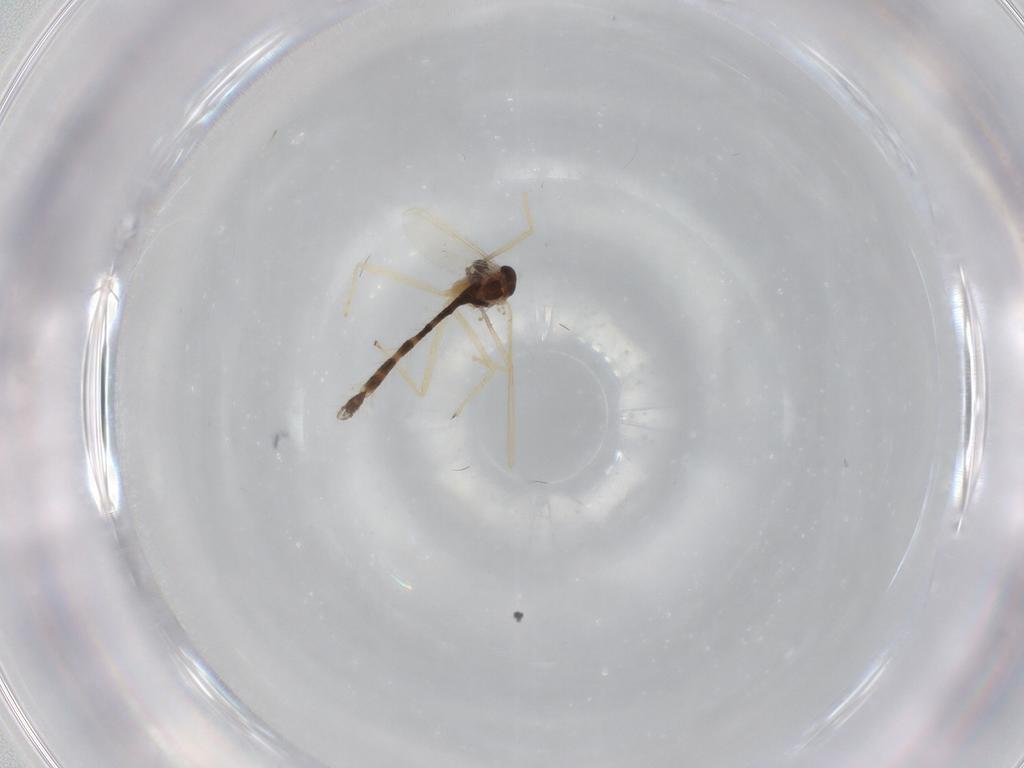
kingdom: Animalia
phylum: Arthropoda
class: Insecta
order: Diptera
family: Chironomidae
